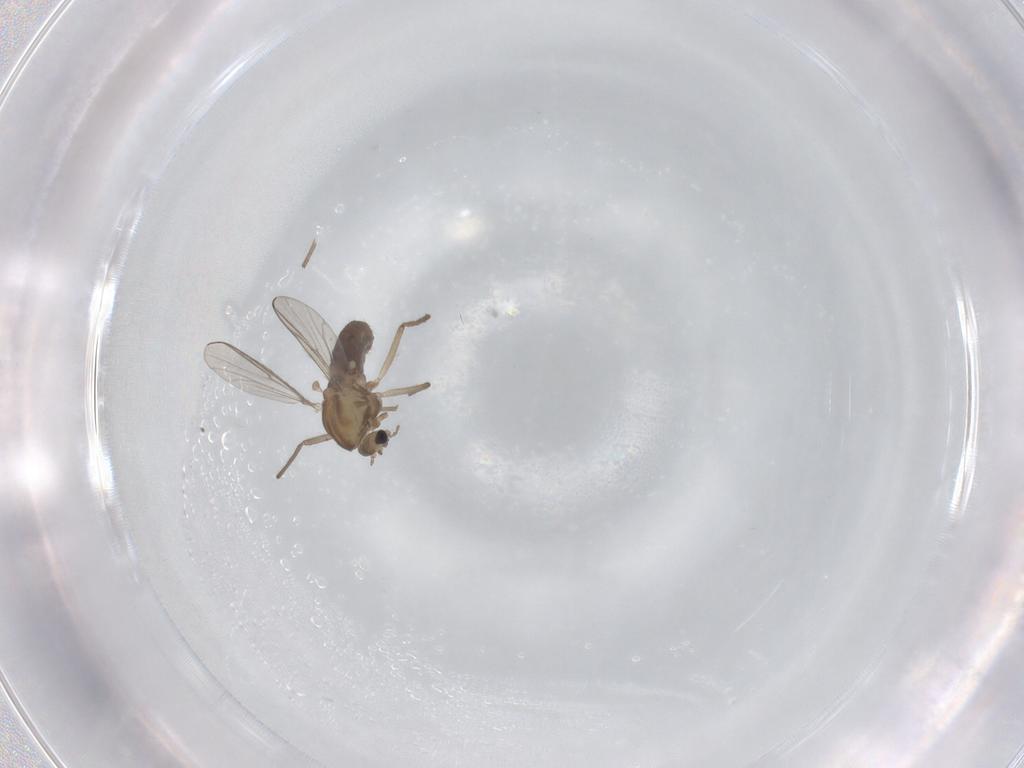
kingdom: Animalia
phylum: Arthropoda
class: Insecta
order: Diptera
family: Chironomidae
